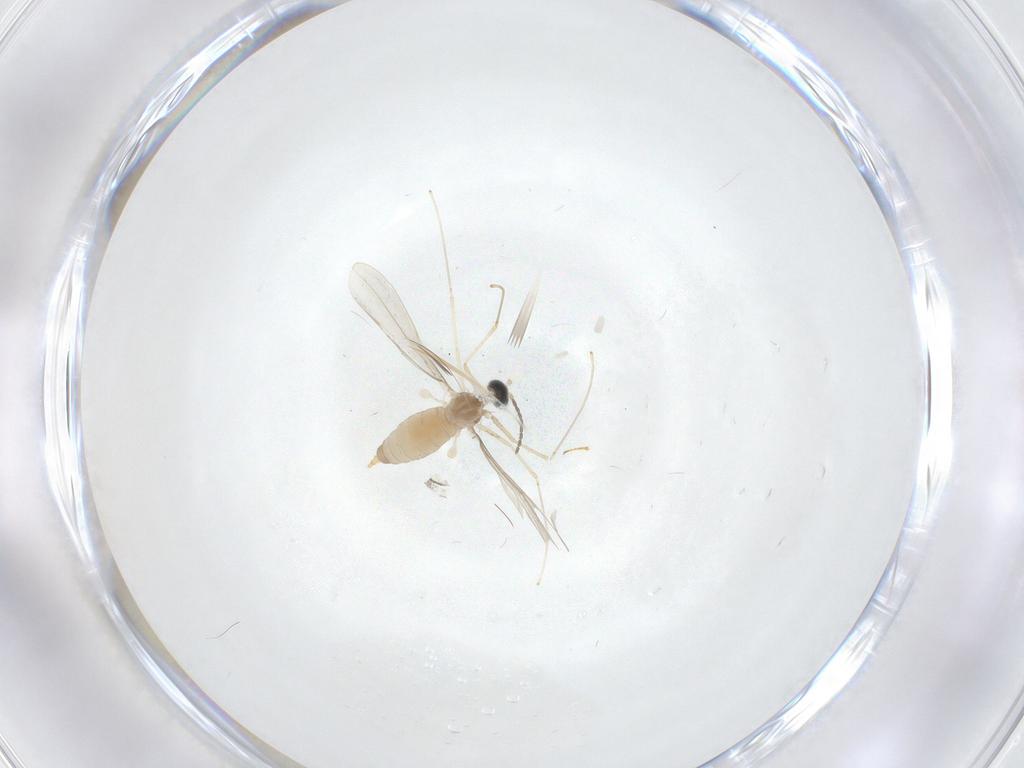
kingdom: Animalia
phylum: Arthropoda
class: Insecta
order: Diptera
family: Cecidomyiidae
